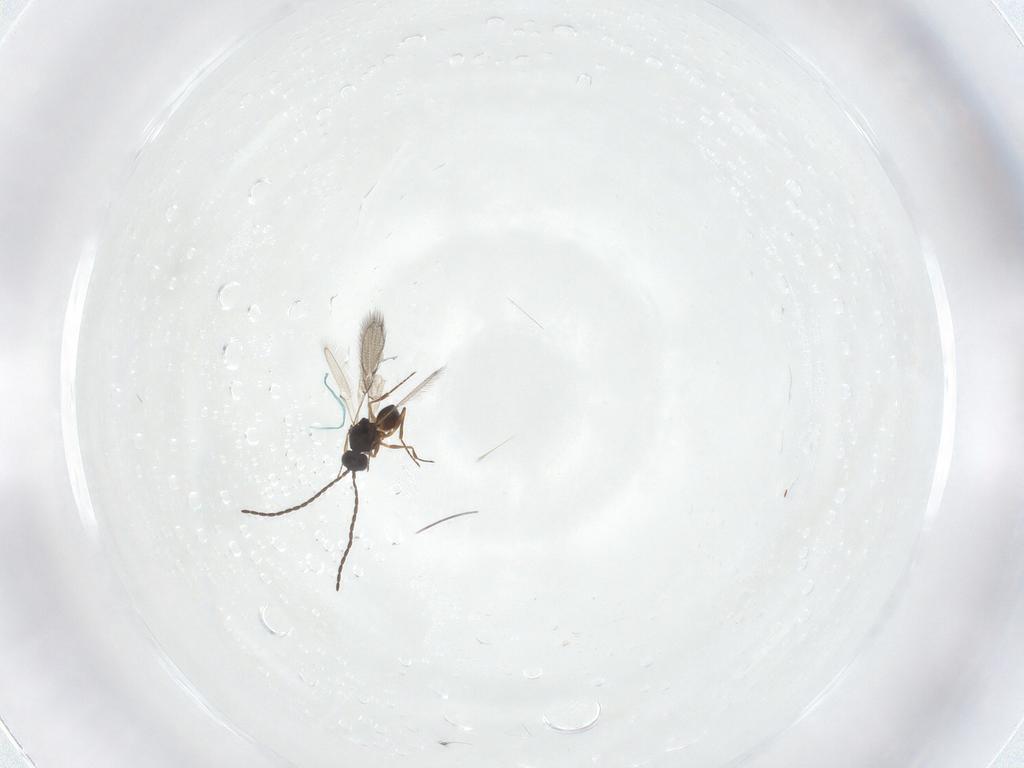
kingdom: Animalia
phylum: Arthropoda
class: Insecta
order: Hymenoptera
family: Figitidae
